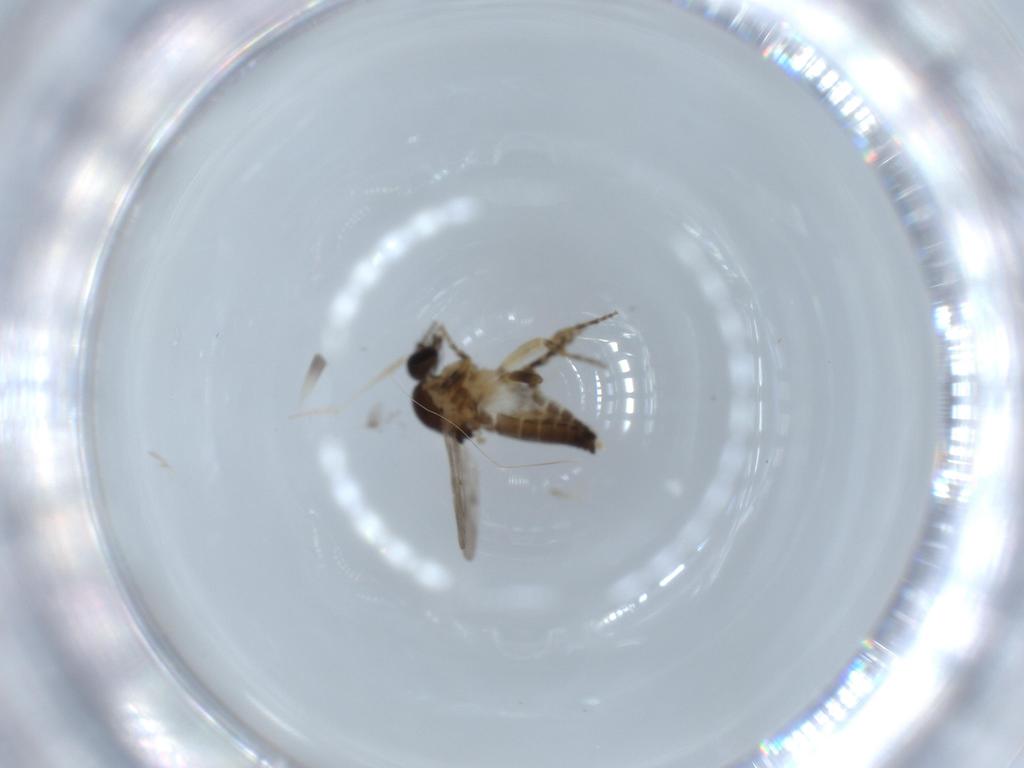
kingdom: Animalia
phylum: Arthropoda
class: Insecta
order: Diptera
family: Ceratopogonidae
